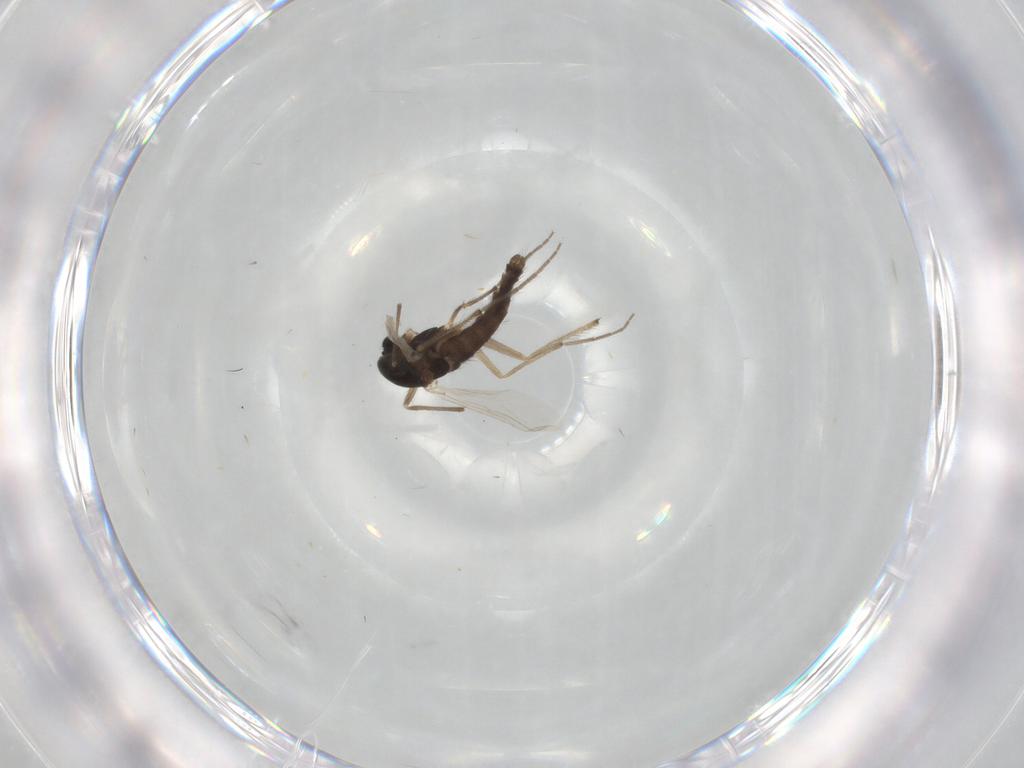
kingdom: Animalia
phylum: Arthropoda
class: Insecta
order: Diptera
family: Chironomidae
